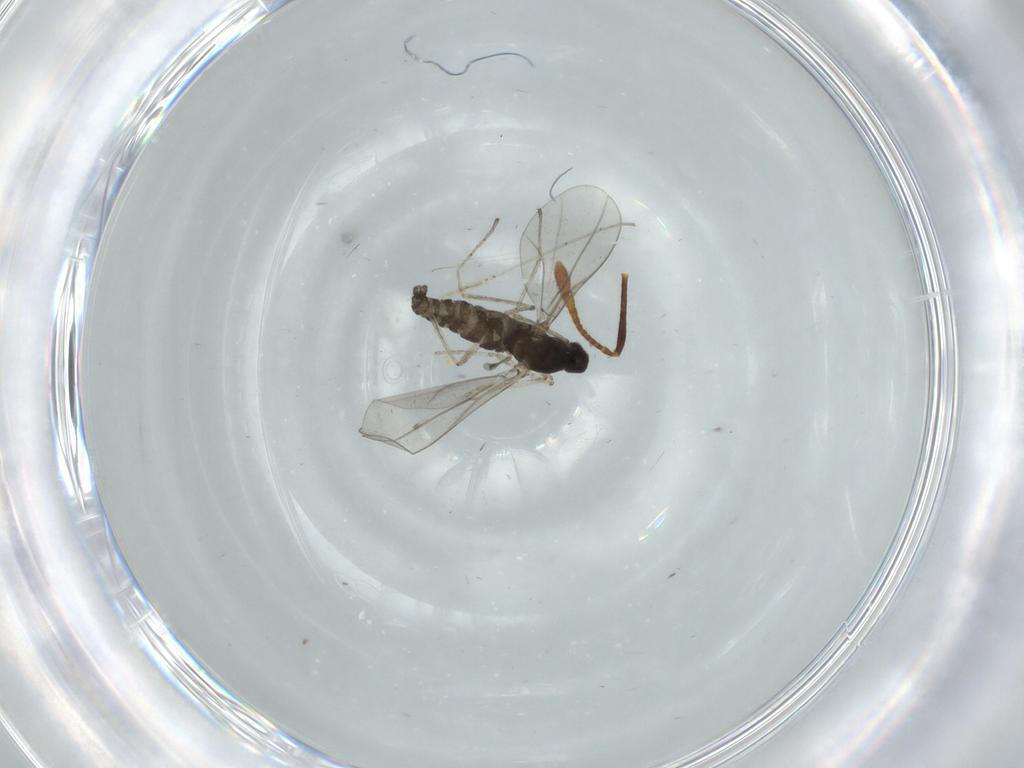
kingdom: Animalia
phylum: Arthropoda
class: Insecta
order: Diptera
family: Cecidomyiidae
